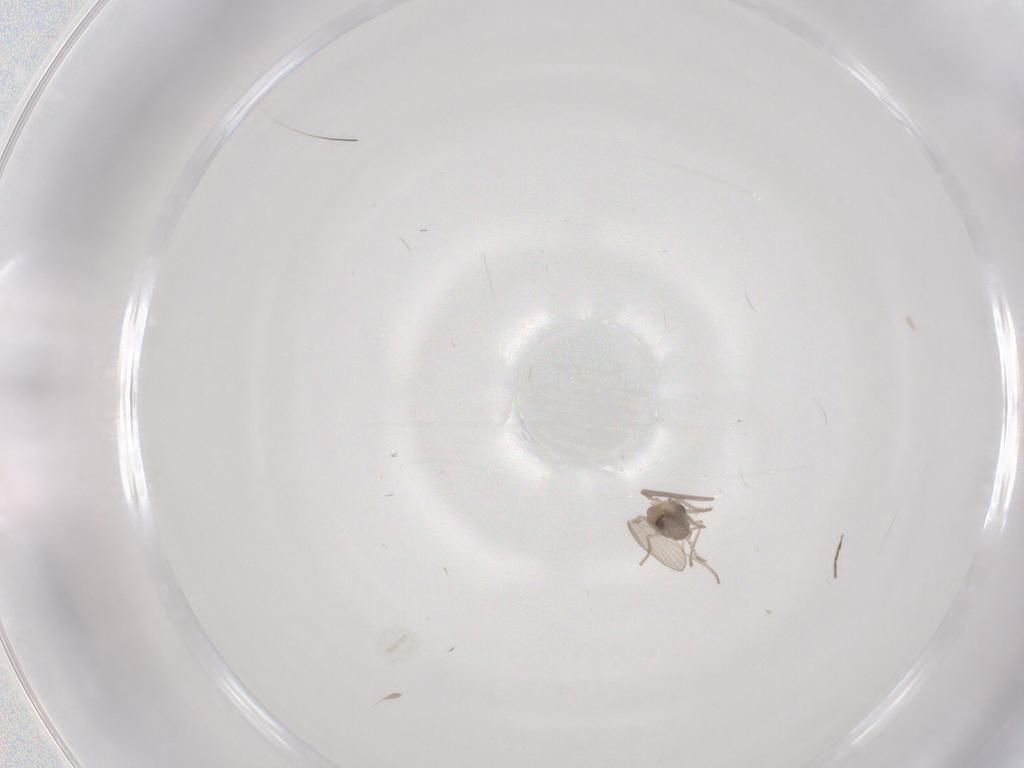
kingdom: Animalia
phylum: Arthropoda
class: Insecta
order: Diptera
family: Psychodidae
